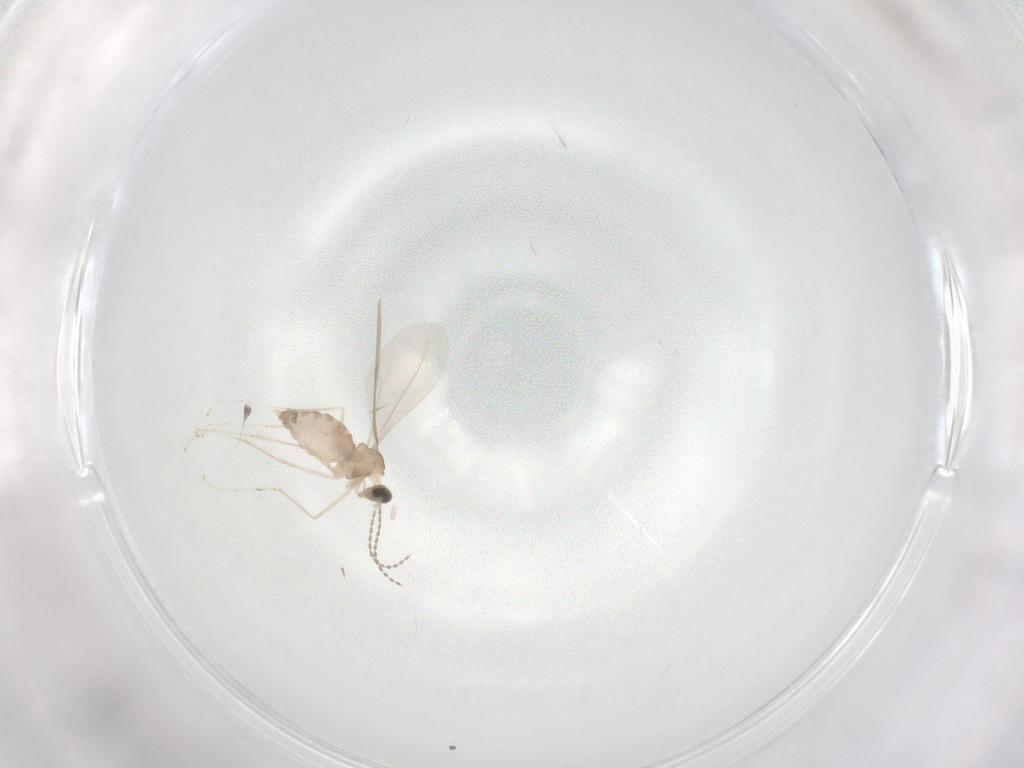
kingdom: Animalia
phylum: Arthropoda
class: Insecta
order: Diptera
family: Cecidomyiidae
